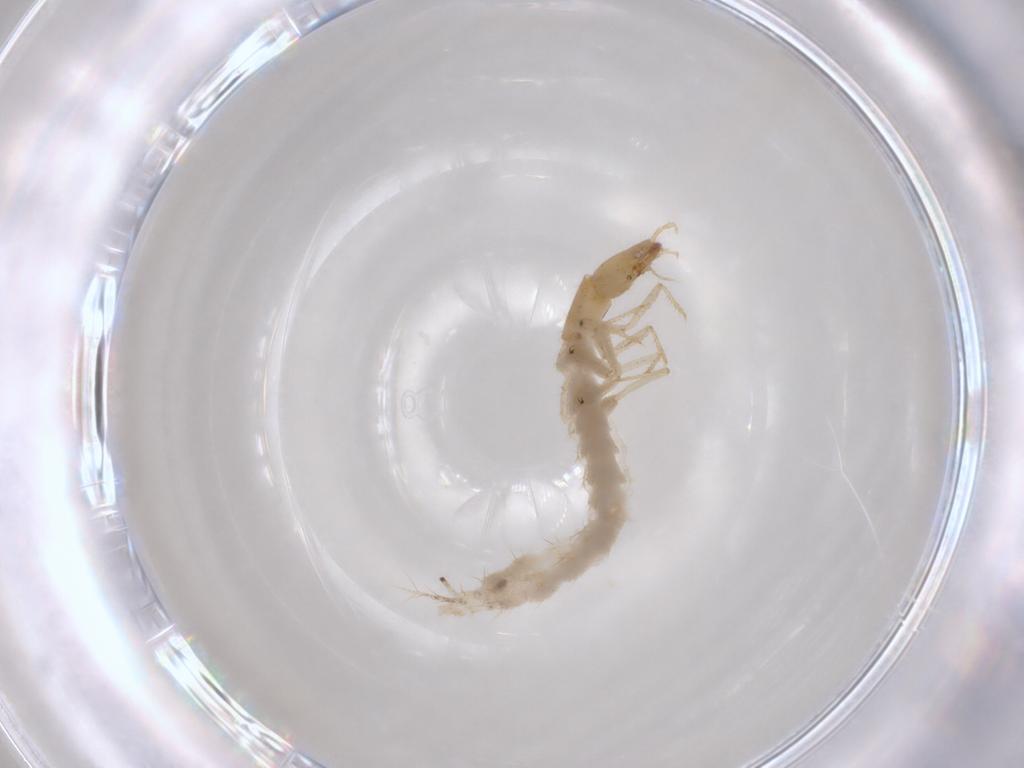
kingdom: Animalia
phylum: Arthropoda
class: Insecta
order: Coleoptera
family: Staphylinidae
